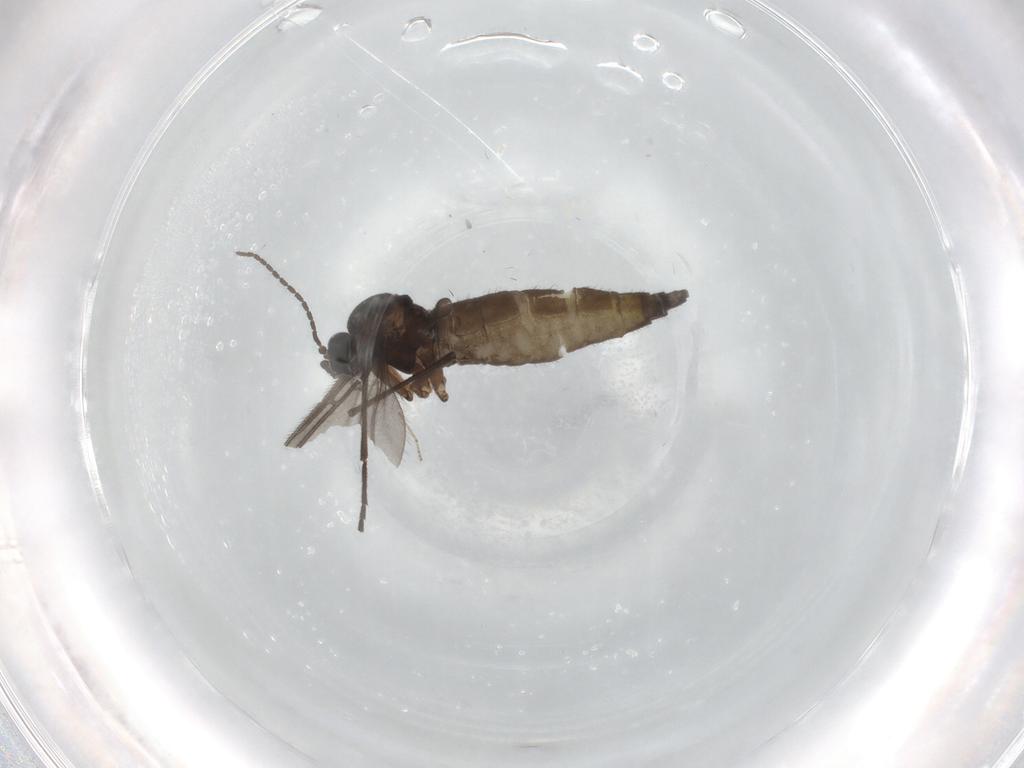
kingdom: Animalia
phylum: Arthropoda
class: Insecta
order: Diptera
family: Sciaridae
